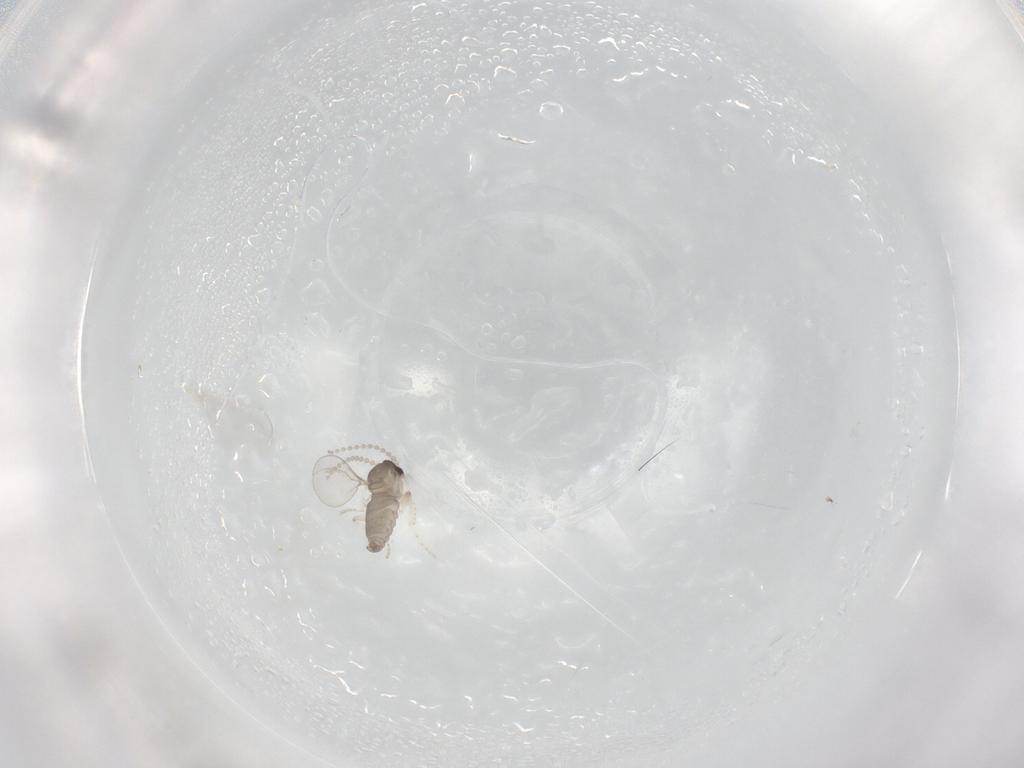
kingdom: Animalia
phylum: Arthropoda
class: Insecta
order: Diptera
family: Cecidomyiidae
